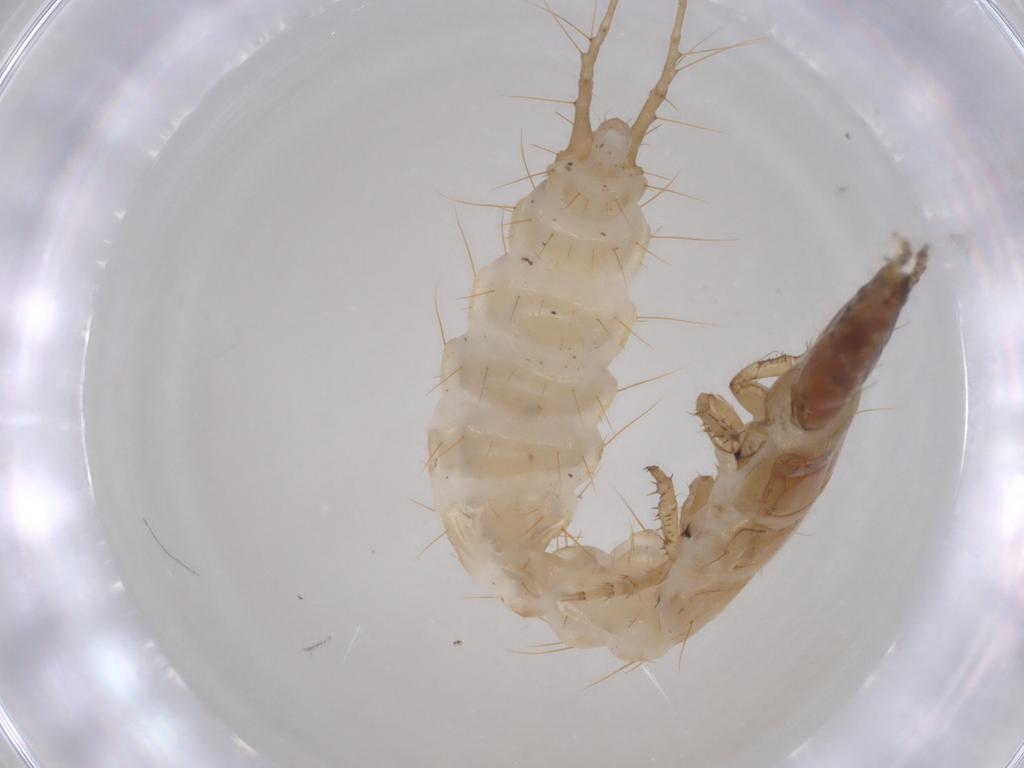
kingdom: Animalia
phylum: Arthropoda
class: Insecta
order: Coleoptera
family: Carabidae
